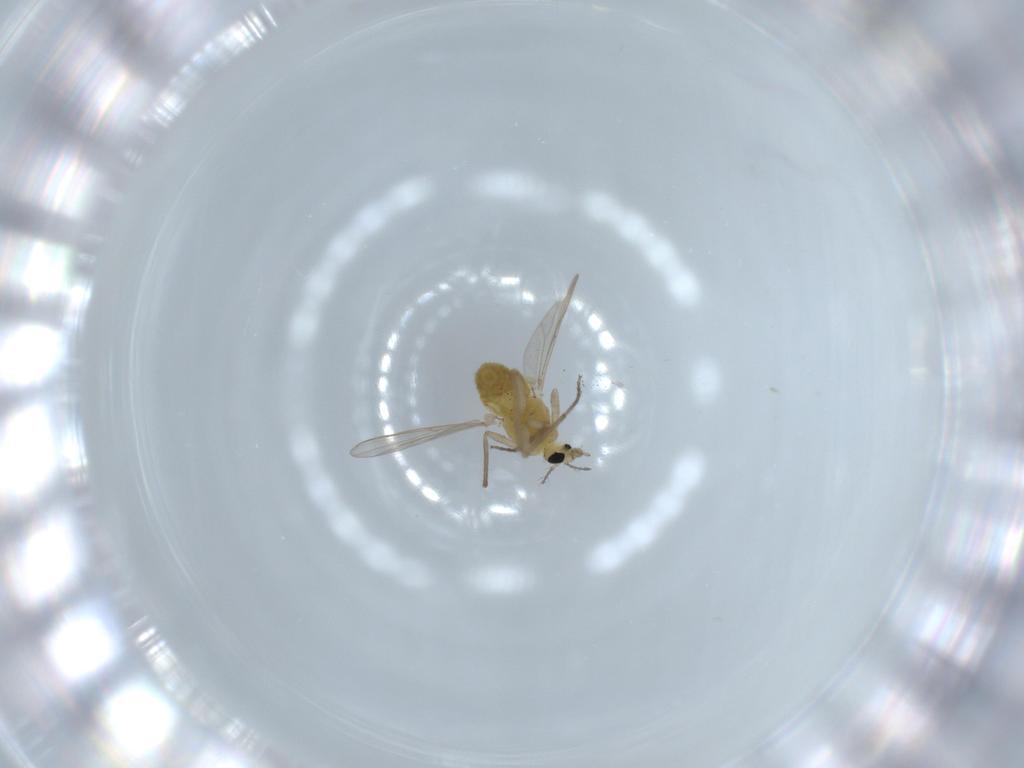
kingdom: Animalia
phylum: Arthropoda
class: Insecta
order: Diptera
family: Chironomidae
